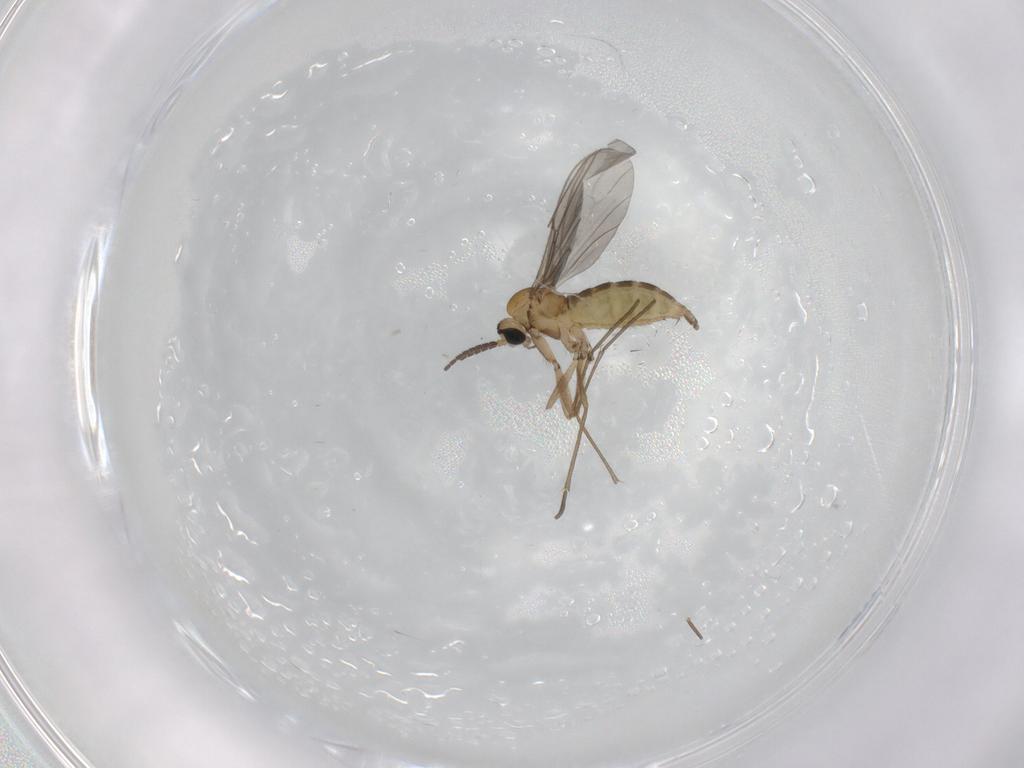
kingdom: Animalia
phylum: Arthropoda
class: Insecta
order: Diptera
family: Sciaridae
